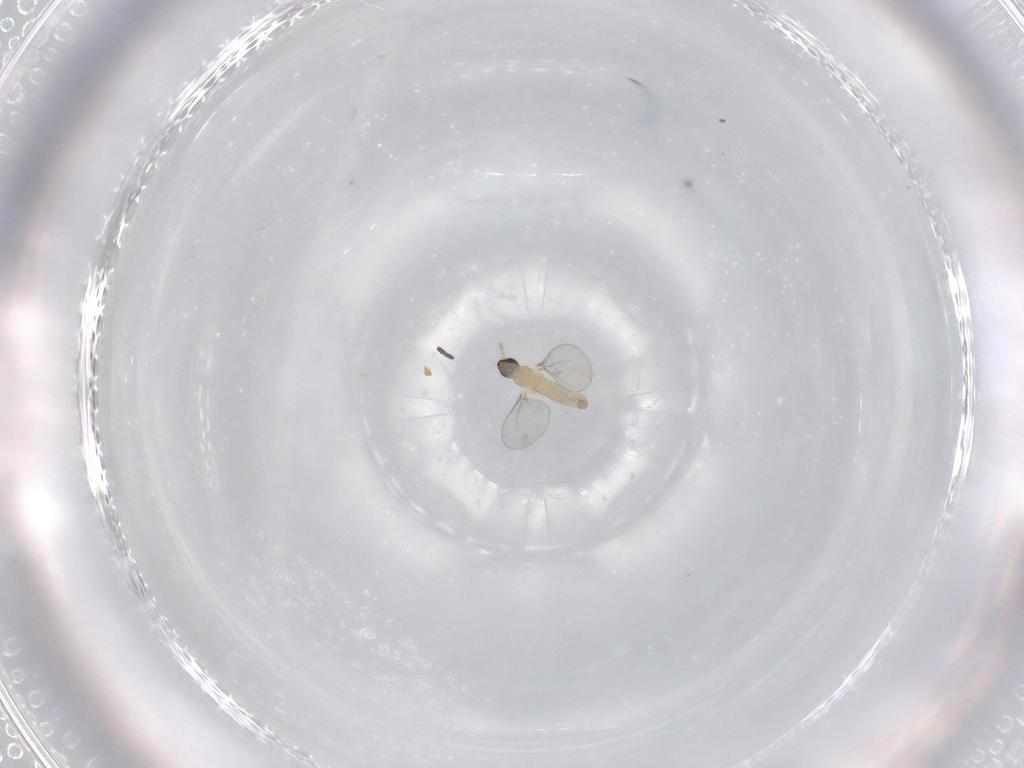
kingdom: Animalia
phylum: Arthropoda
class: Insecta
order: Diptera
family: Cecidomyiidae
